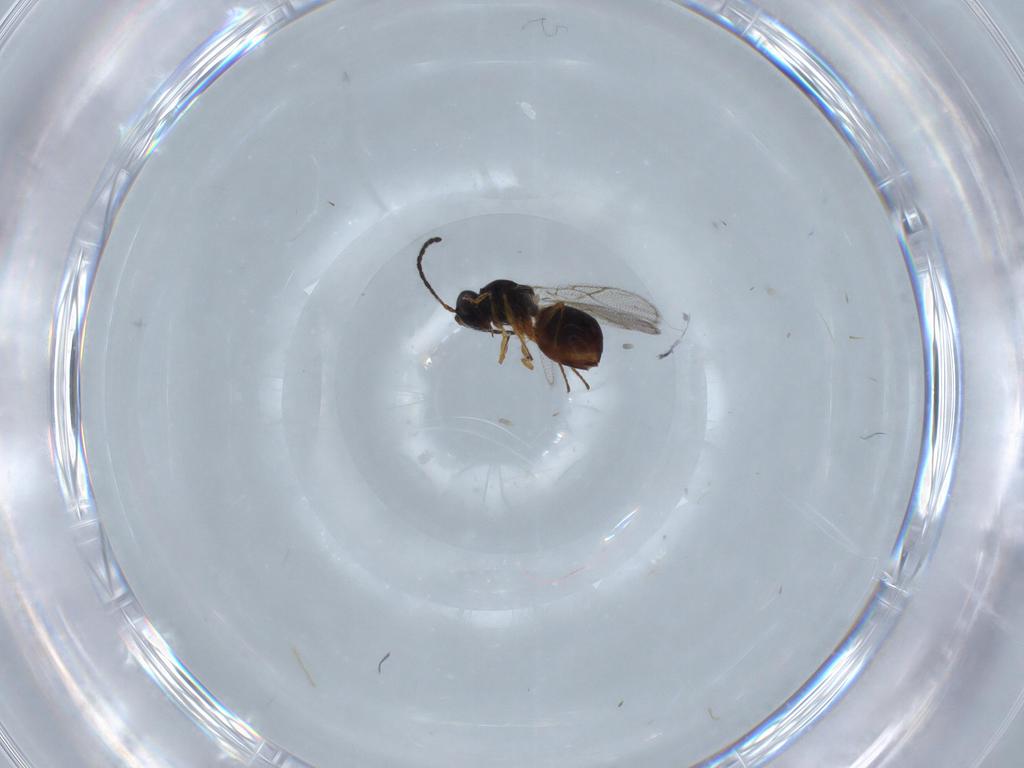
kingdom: Animalia
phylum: Arthropoda
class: Insecta
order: Hymenoptera
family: Figitidae
